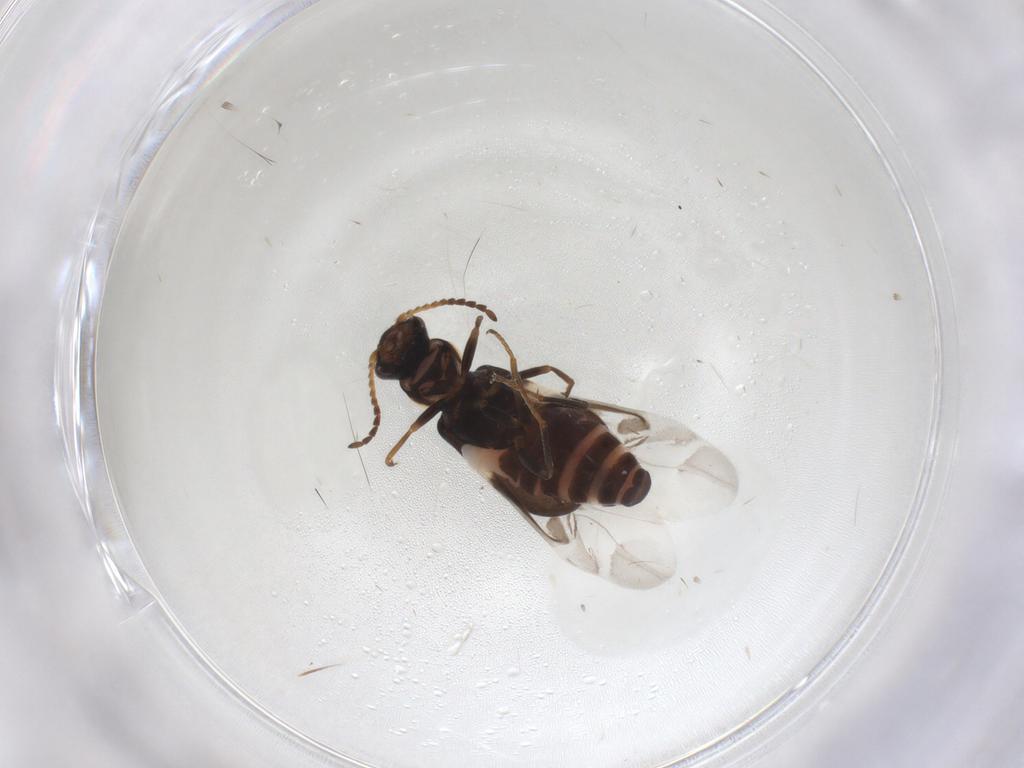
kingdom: Animalia
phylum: Arthropoda
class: Insecta
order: Coleoptera
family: Melyridae
